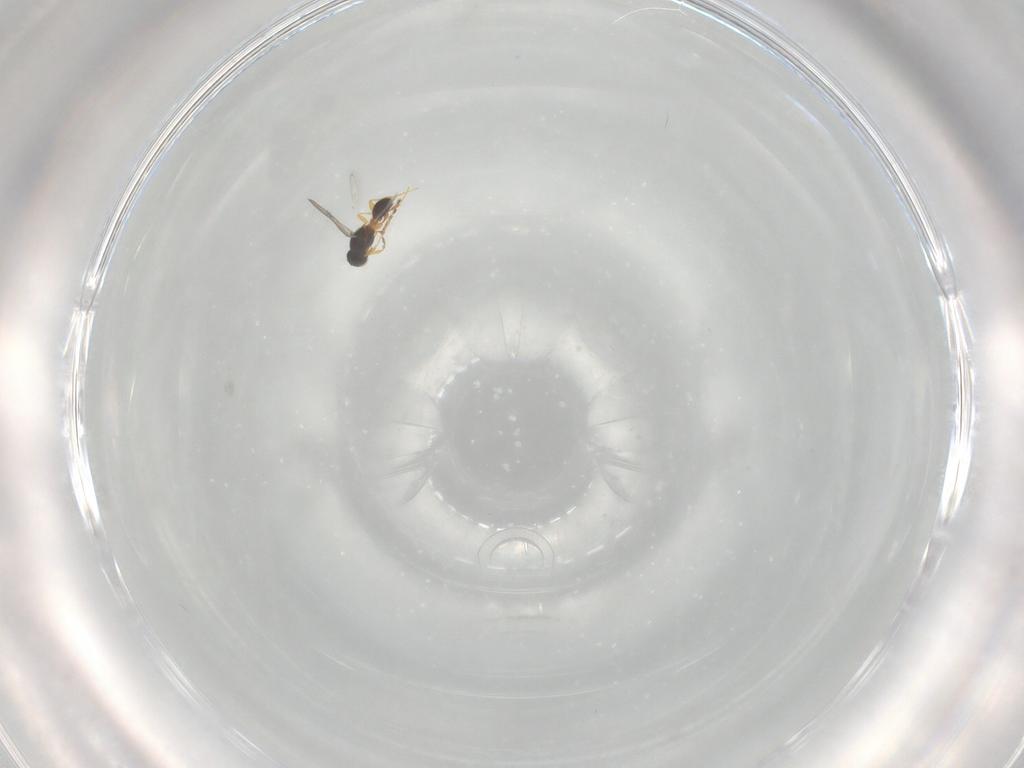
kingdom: Animalia
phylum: Arthropoda
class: Insecta
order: Hymenoptera
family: Platygastridae
